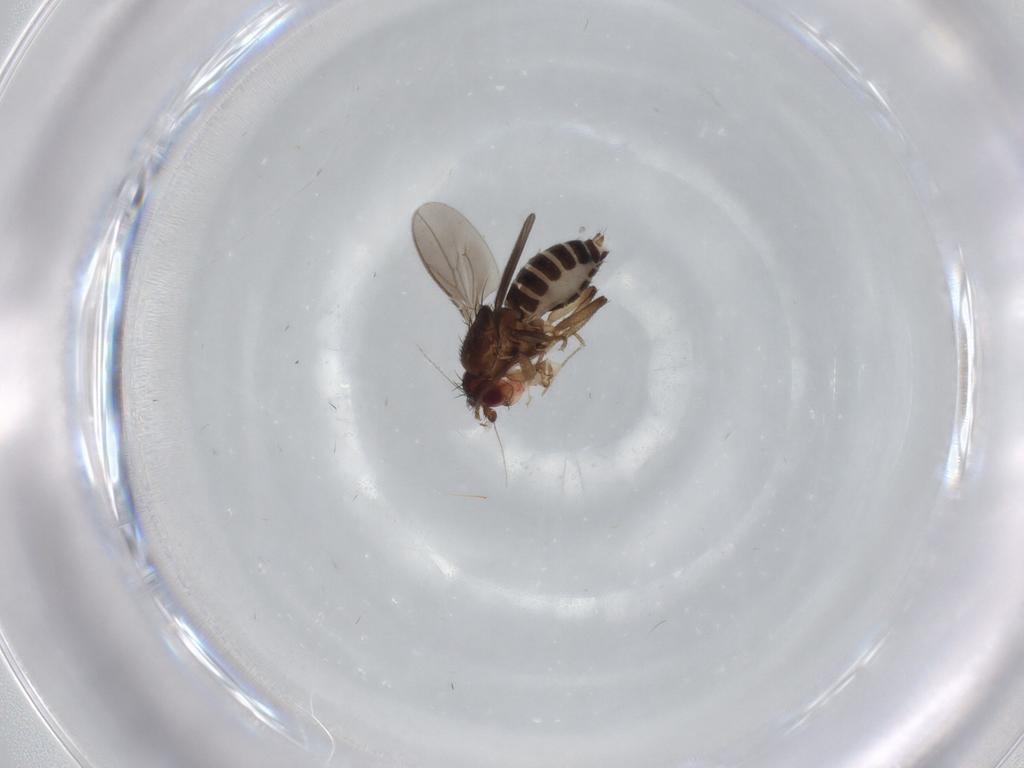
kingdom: Animalia
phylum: Arthropoda
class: Insecta
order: Diptera
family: Sphaeroceridae
